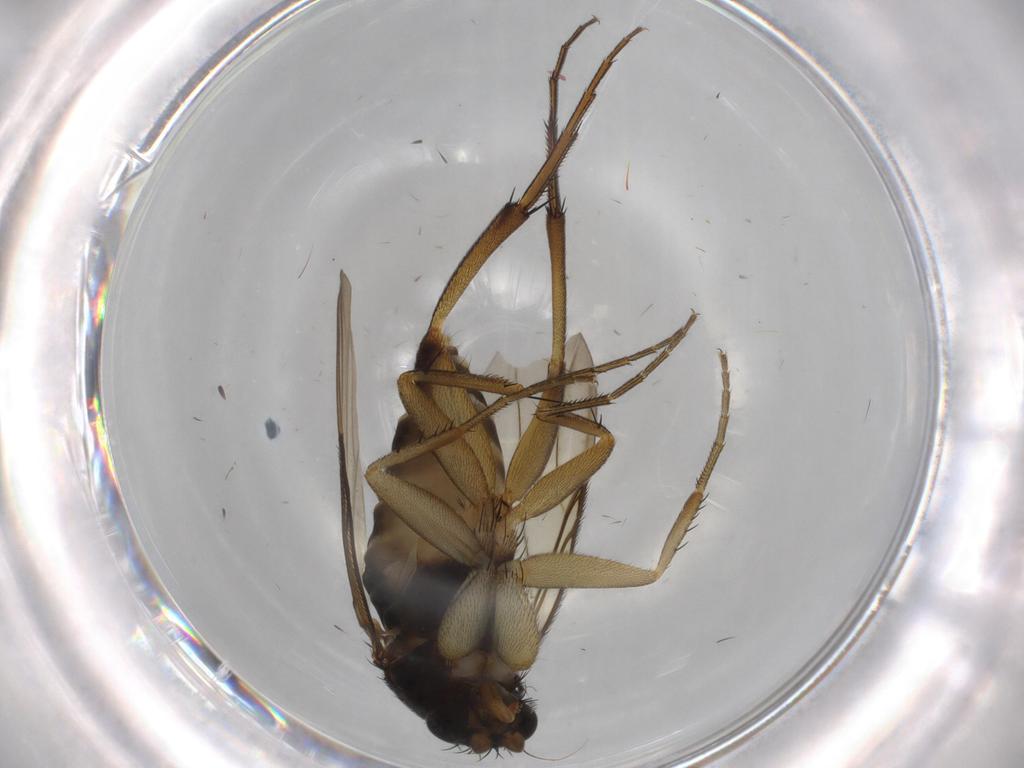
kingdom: Animalia
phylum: Arthropoda
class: Insecta
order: Diptera
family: Phoridae
